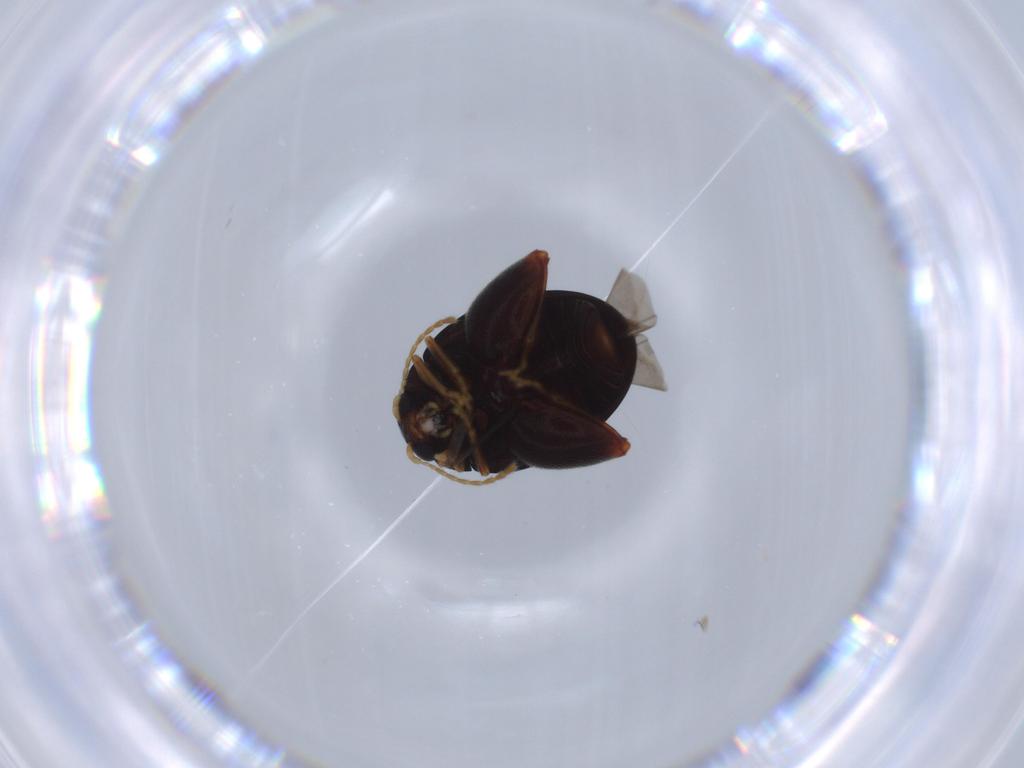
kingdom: Animalia
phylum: Arthropoda
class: Insecta
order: Coleoptera
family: Chrysomelidae
